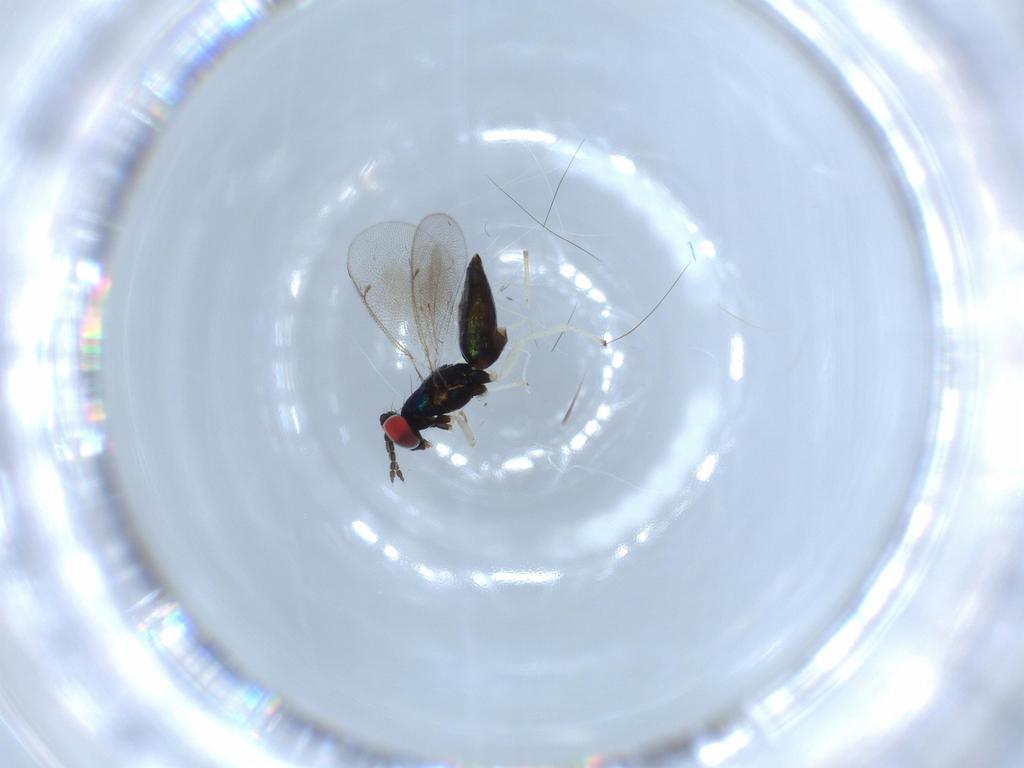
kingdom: Animalia
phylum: Arthropoda
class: Insecta
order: Hymenoptera
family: Eulophidae
